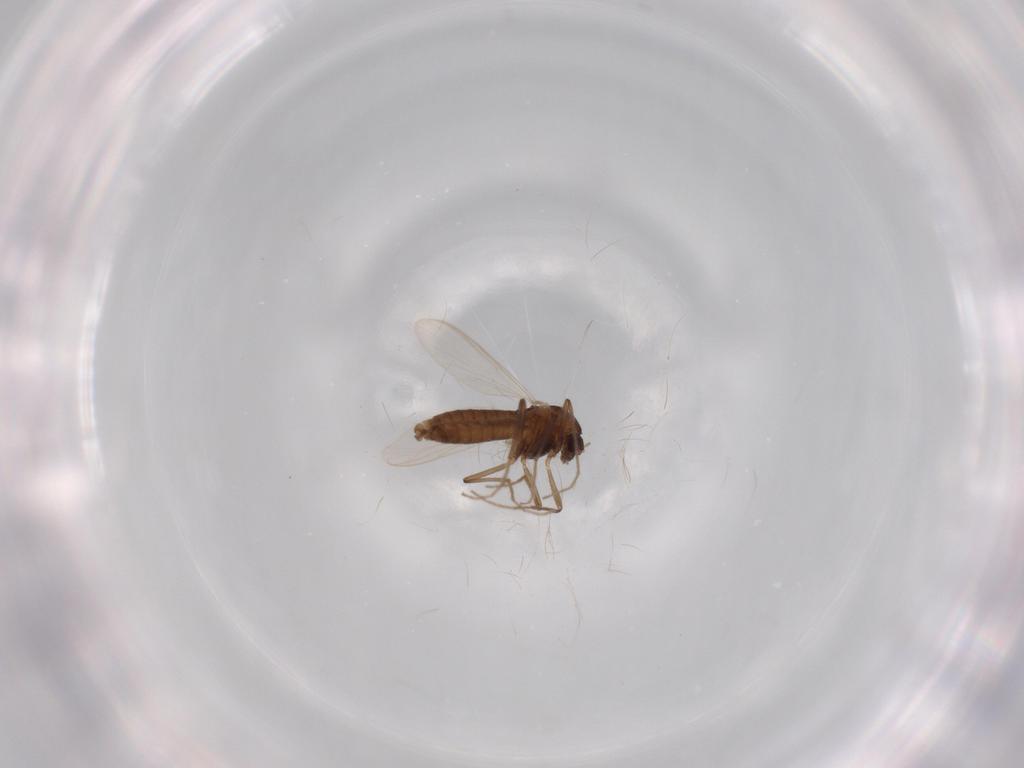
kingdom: Animalia
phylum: Arthropoda
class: Insecta
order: Diptera
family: Chironomidae
